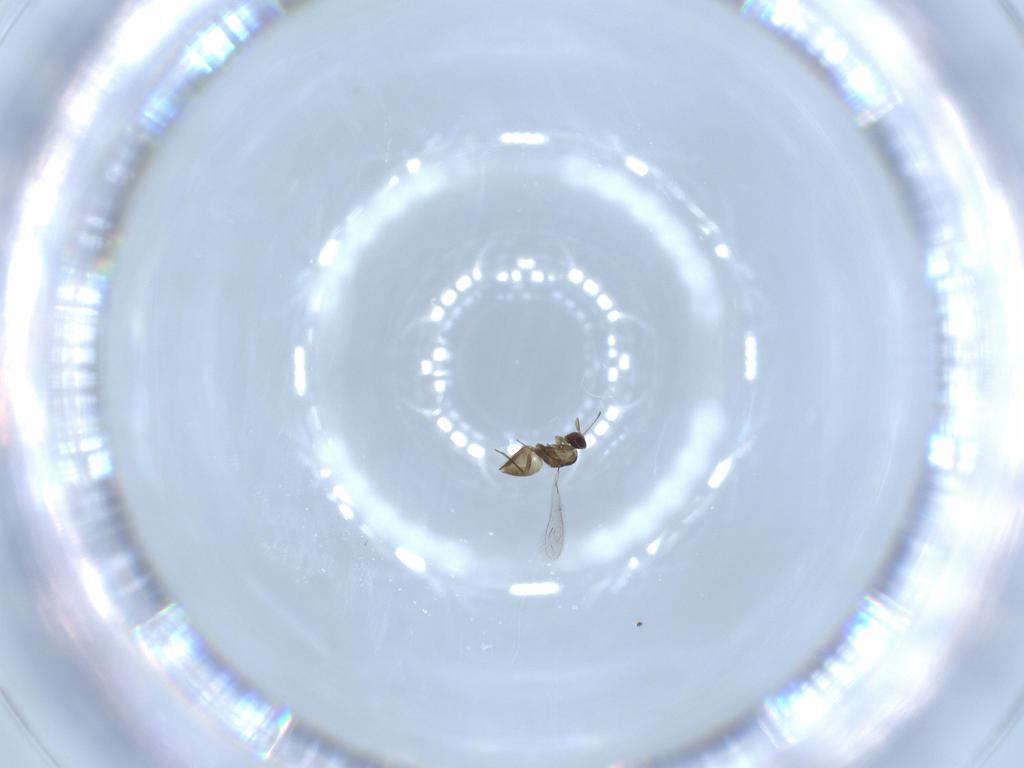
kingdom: Animalia
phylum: Arthropoda
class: Insecta
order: Hymenoptera
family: Mymaridae
